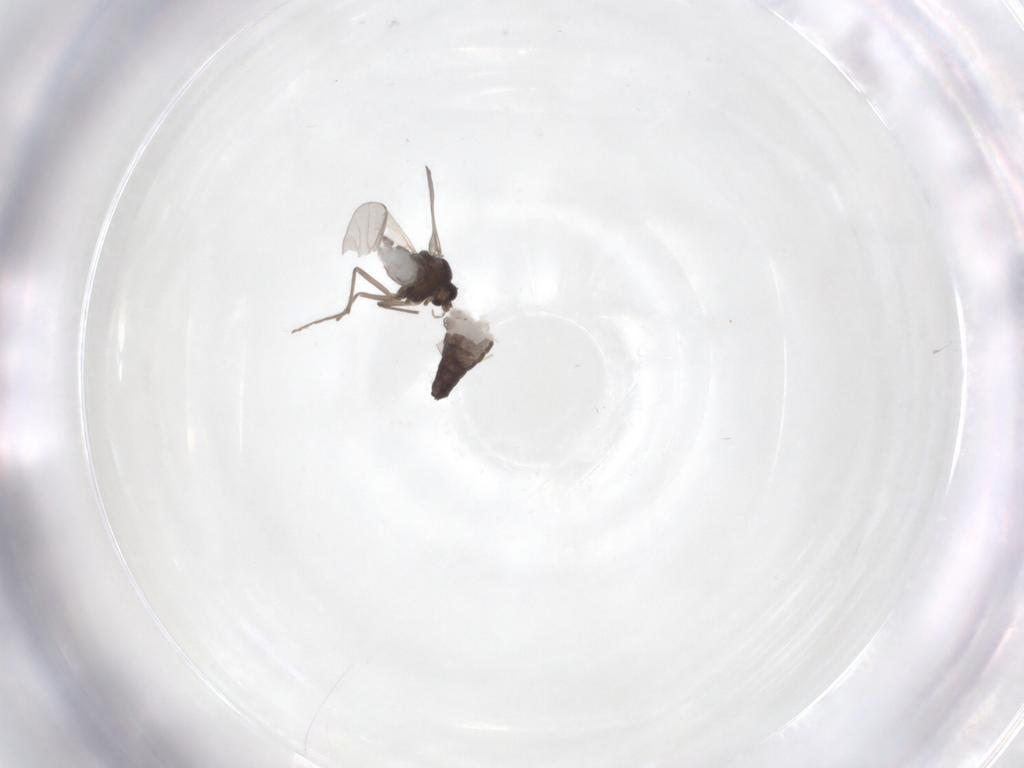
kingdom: Animalia
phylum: Arthropoda
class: Insecta
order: Diptera
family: Chironomidae
